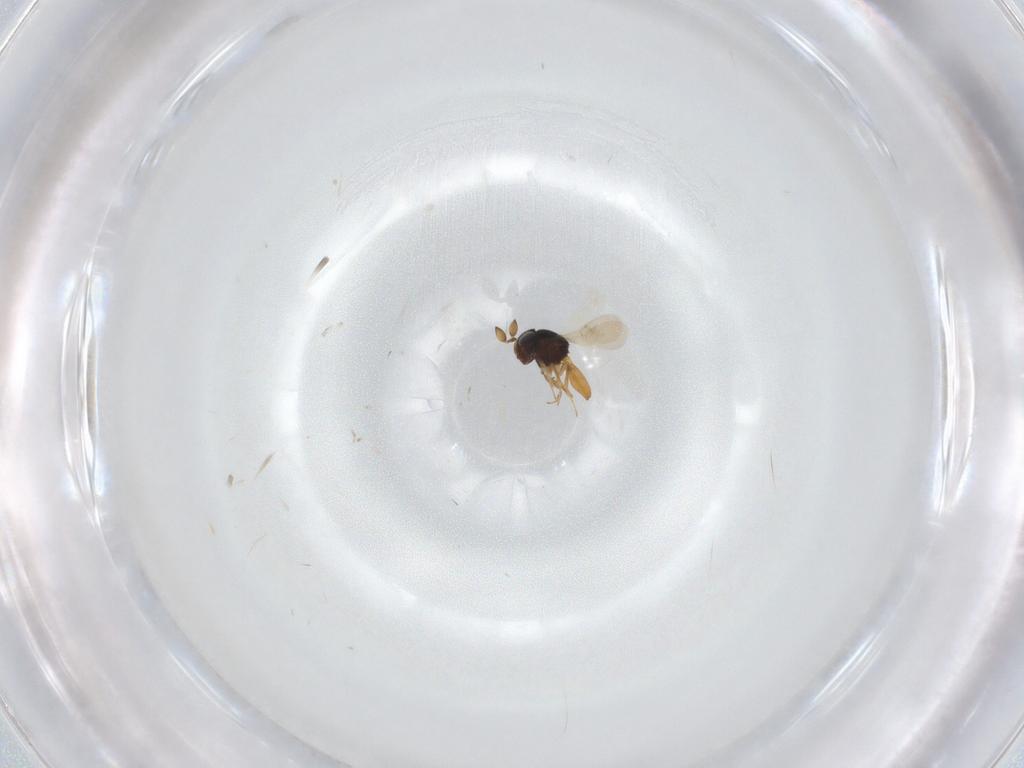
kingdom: Animalia
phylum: Arthropoda
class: Insecta
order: Hymenoptera
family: Scelionidae
